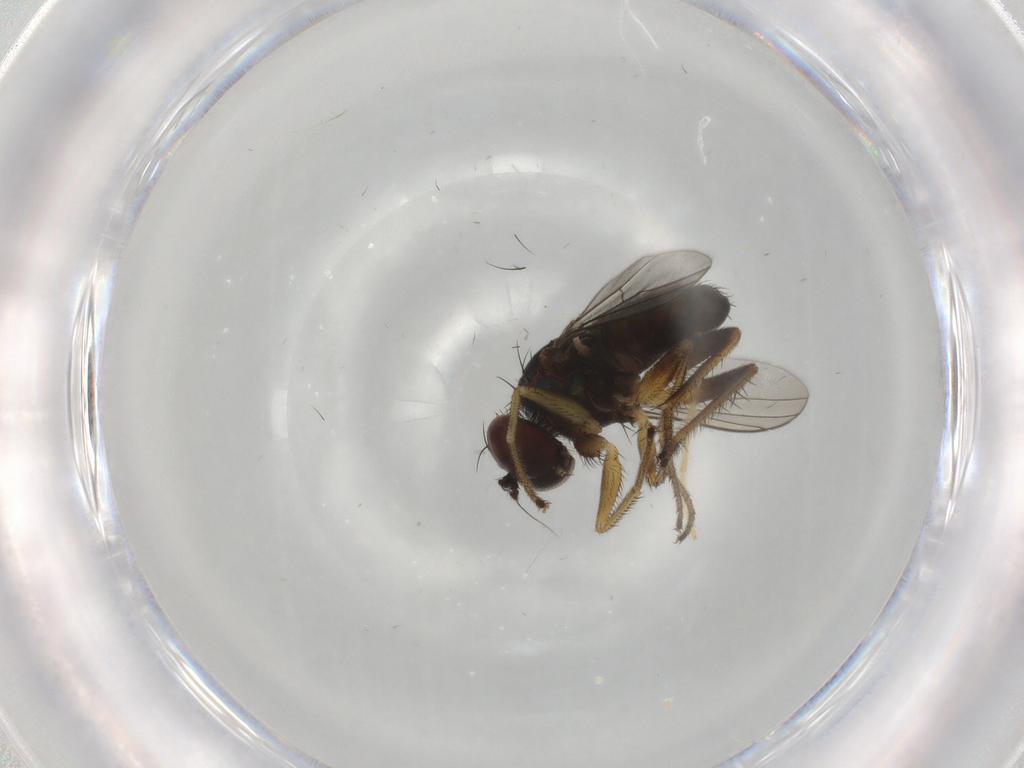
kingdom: Animalia
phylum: Arthropoda
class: Insecta
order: Diptera
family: Dolichopodidae
